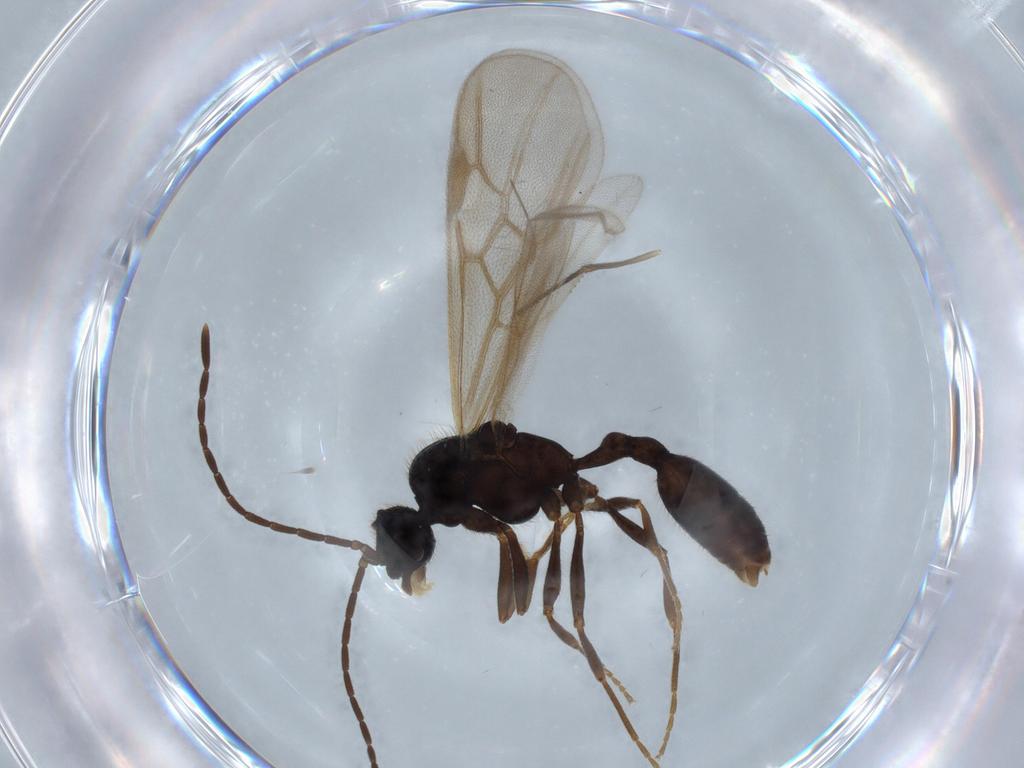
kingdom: Animalia
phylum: Arthropoda
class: Insecta
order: Hymenoptera
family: Formicidae
